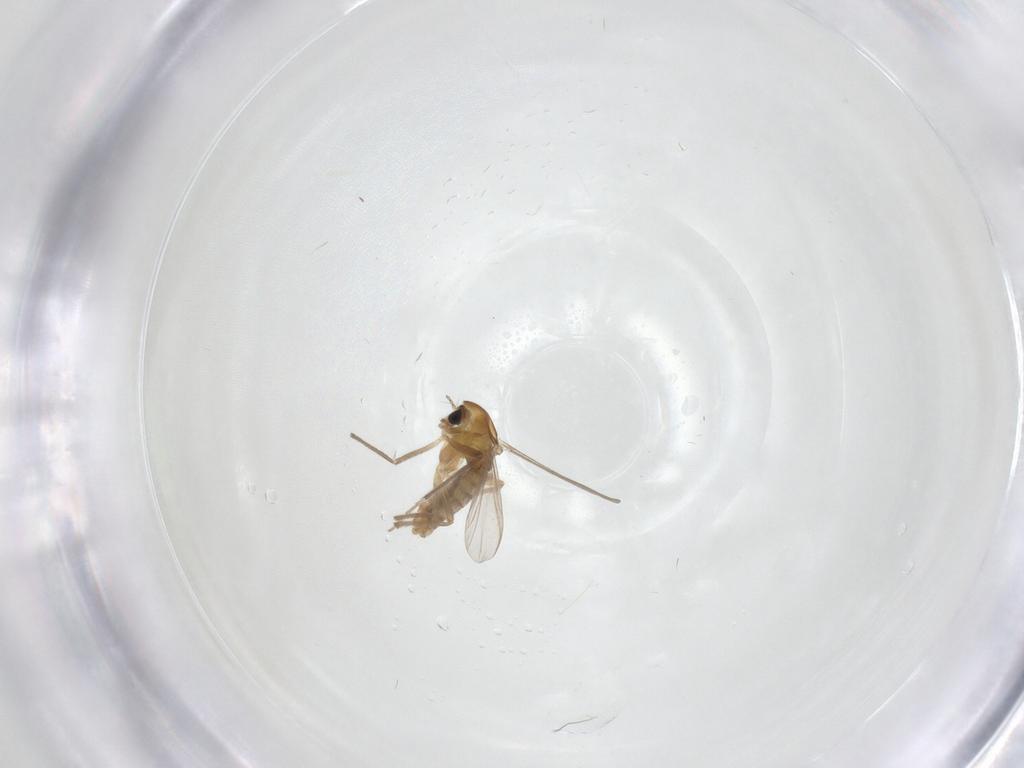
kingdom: Animalia
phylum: Arthropoda
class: Insecta
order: Diptera
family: Chironomidae
